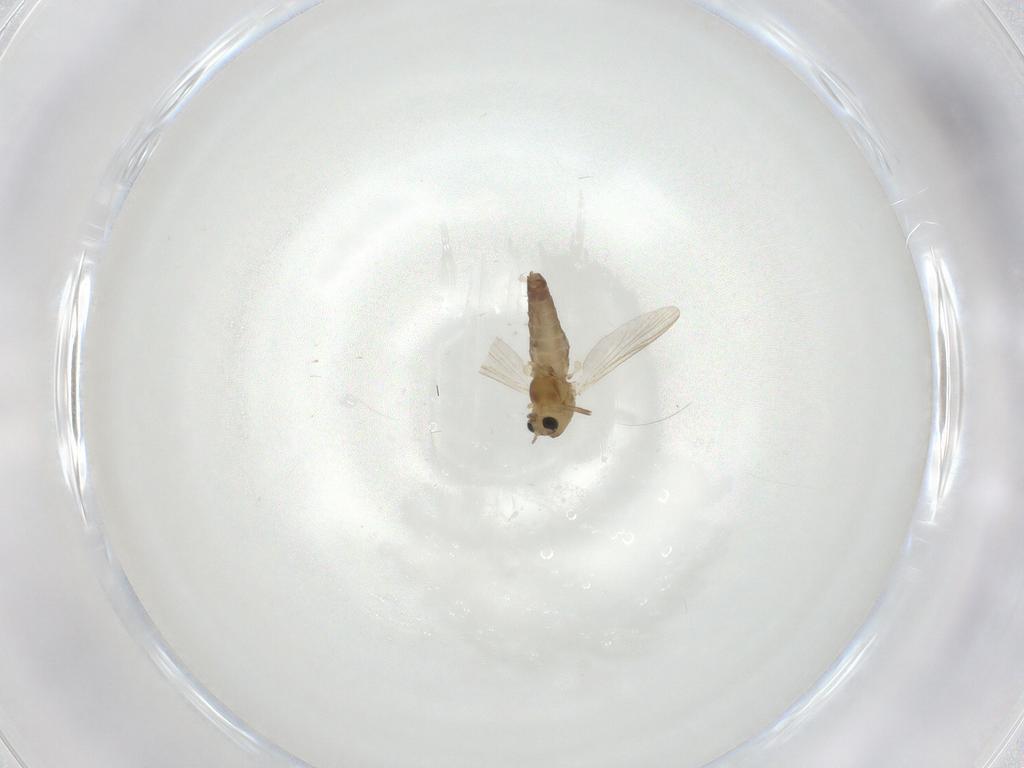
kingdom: Animalia
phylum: Arthropoda
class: Insecta
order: Diptera
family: Chironomidae
